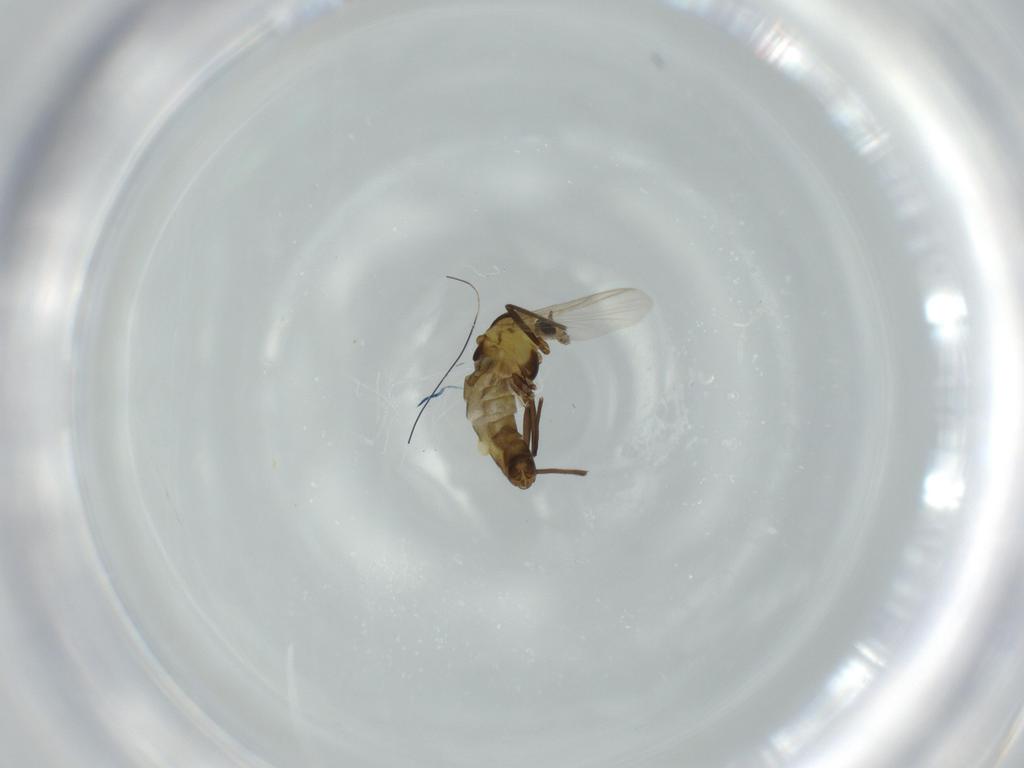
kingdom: Animalia
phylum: Arthropoda
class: Insecta
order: Diptera
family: Chironomidae
